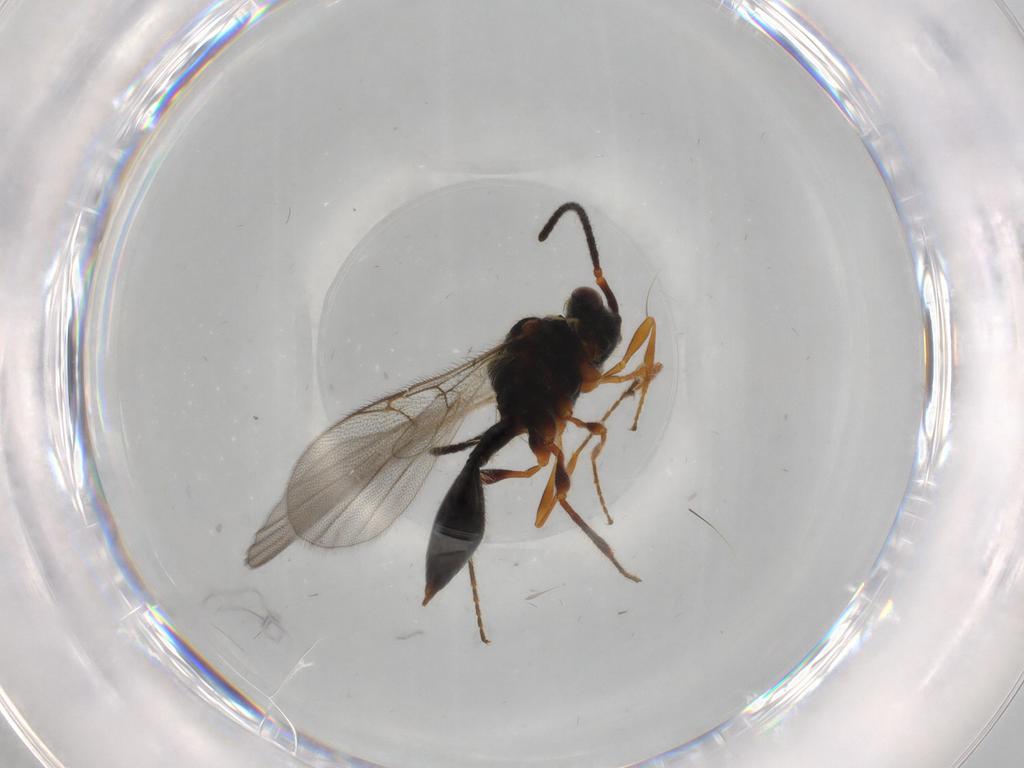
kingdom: Animalia
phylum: Arthropoda
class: Insecta
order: Hymenoptera
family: Diapriidae
